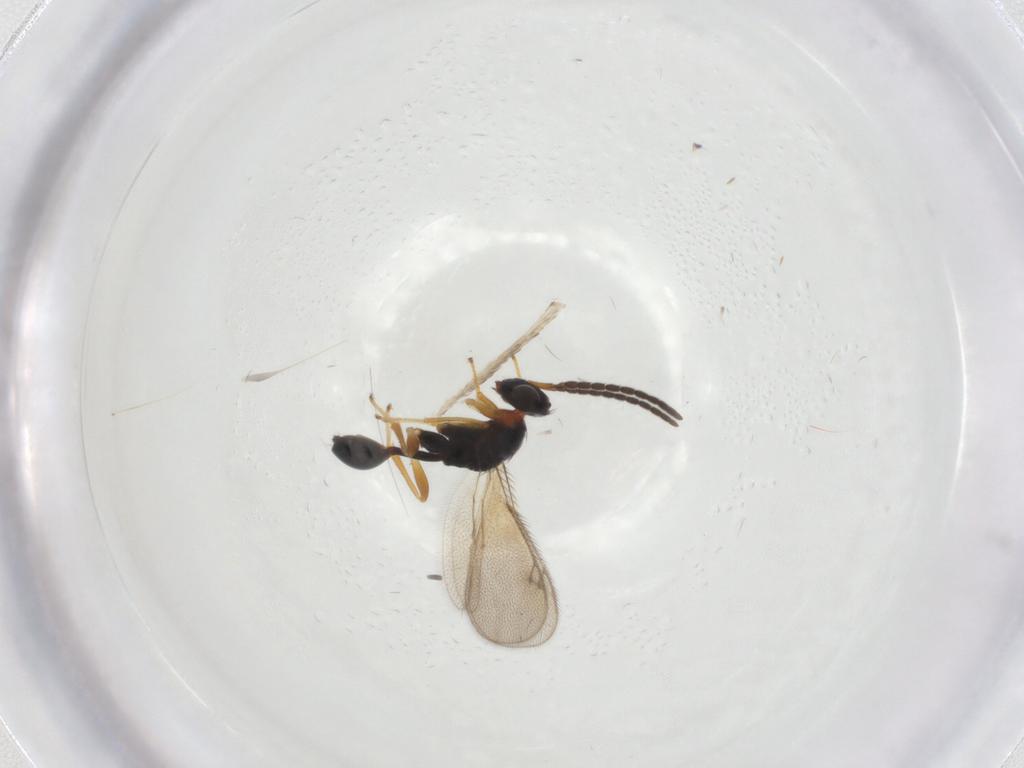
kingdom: Animalia
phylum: Arthropoda
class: Insecta
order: Hymenoptera
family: Diparidae
